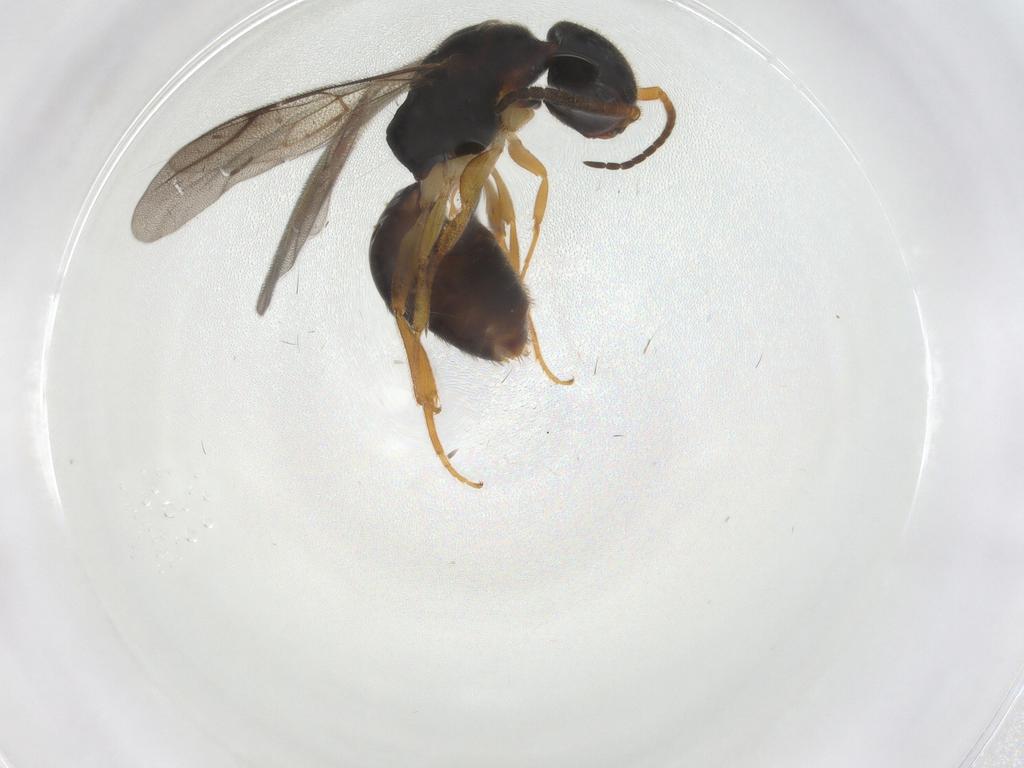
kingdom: Animalia
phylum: Arthropoda
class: Insecta
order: Hymenoptera
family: Bethylidae
